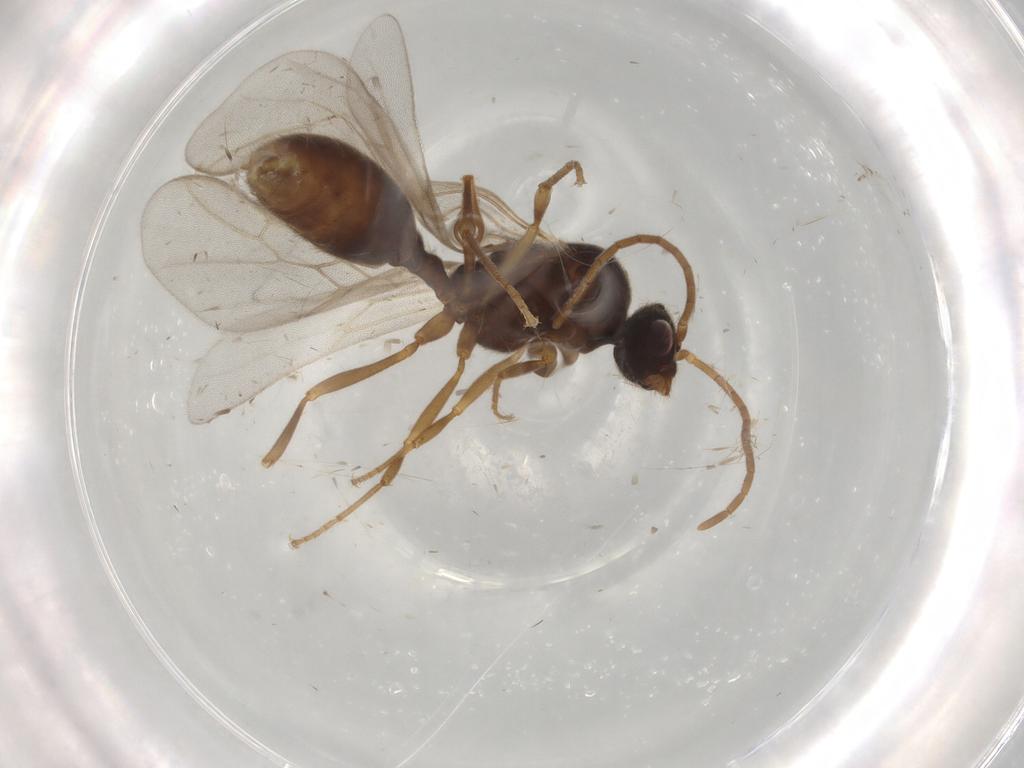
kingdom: Animalia
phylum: Arthropoda
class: Insecta
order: Hymenoptera
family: Formicidae
